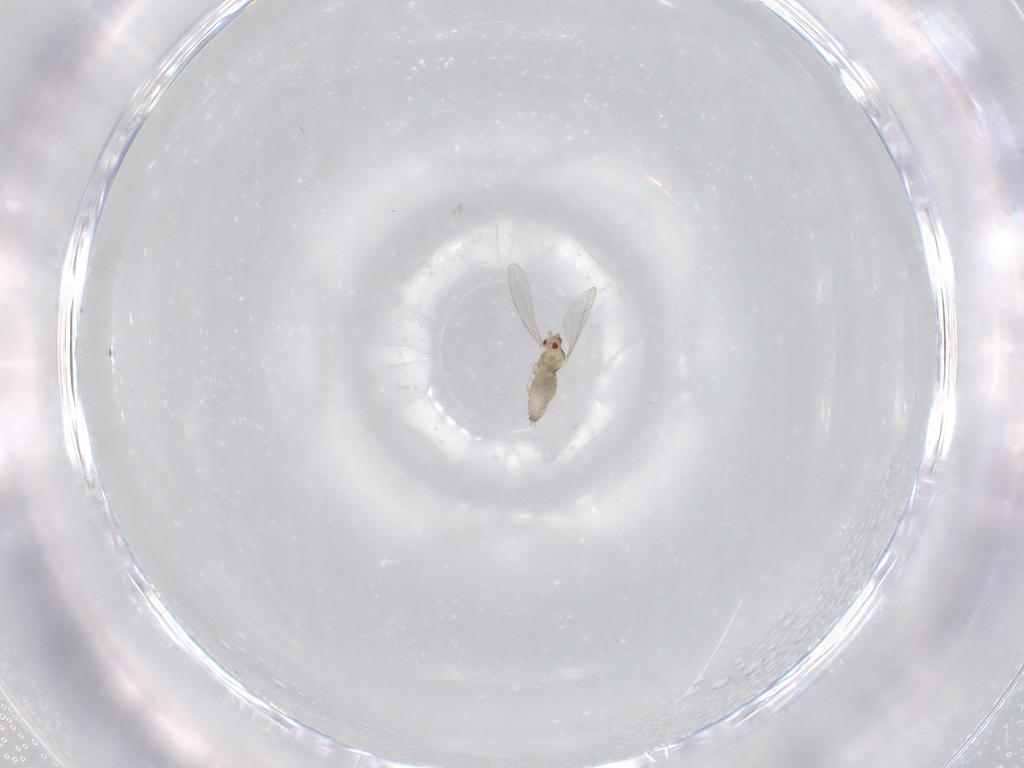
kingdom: Animalia
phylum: Arthropoda
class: Insecta
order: Diptera
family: Cecidomyiidae
